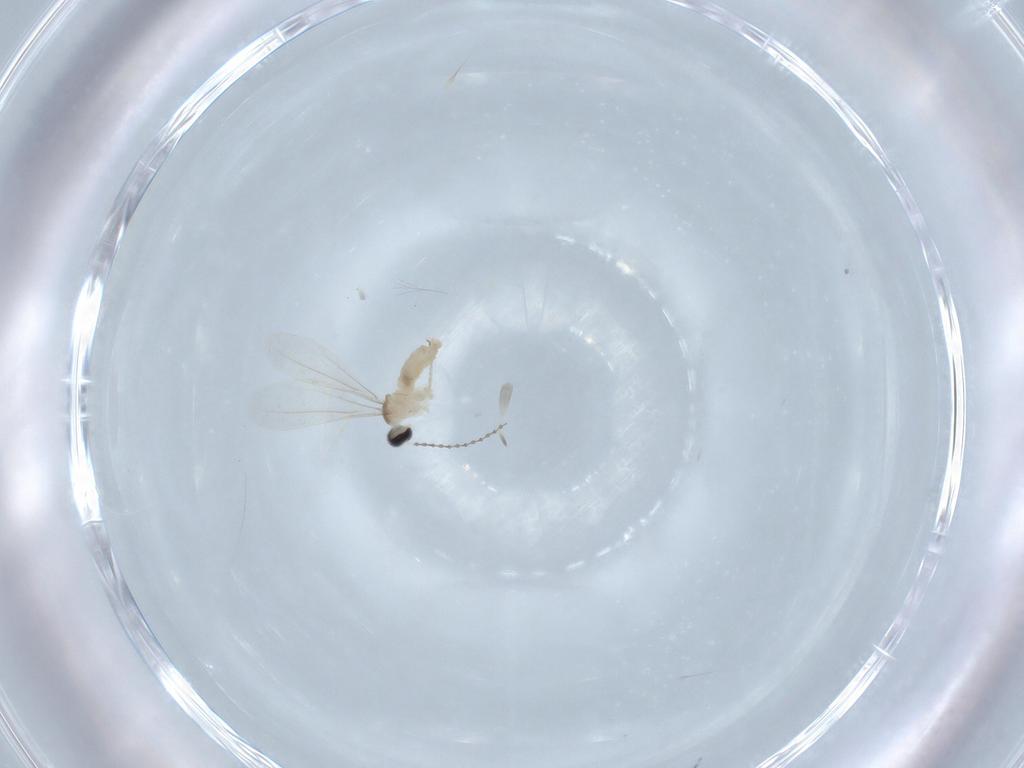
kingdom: Animalia
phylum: Arthropoda
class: Insecta
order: Diptera
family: Cecidomyiidae
